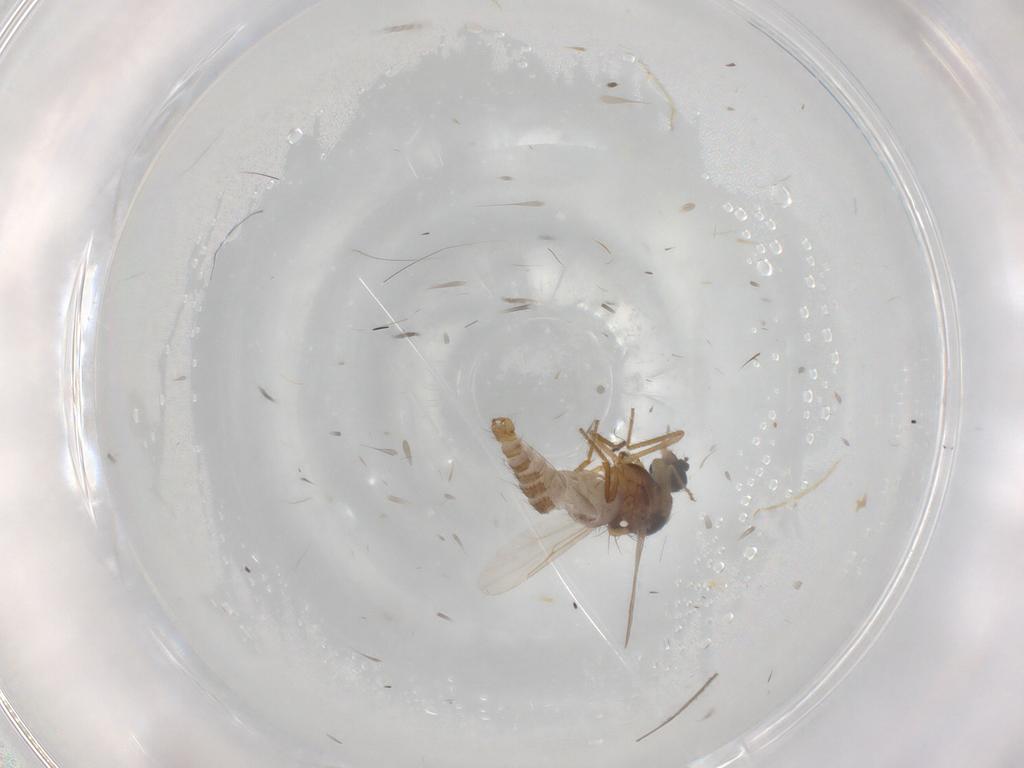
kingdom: Animalia
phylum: Arthropoda
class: Insecta
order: Diptera
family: Ceratopogonidae
